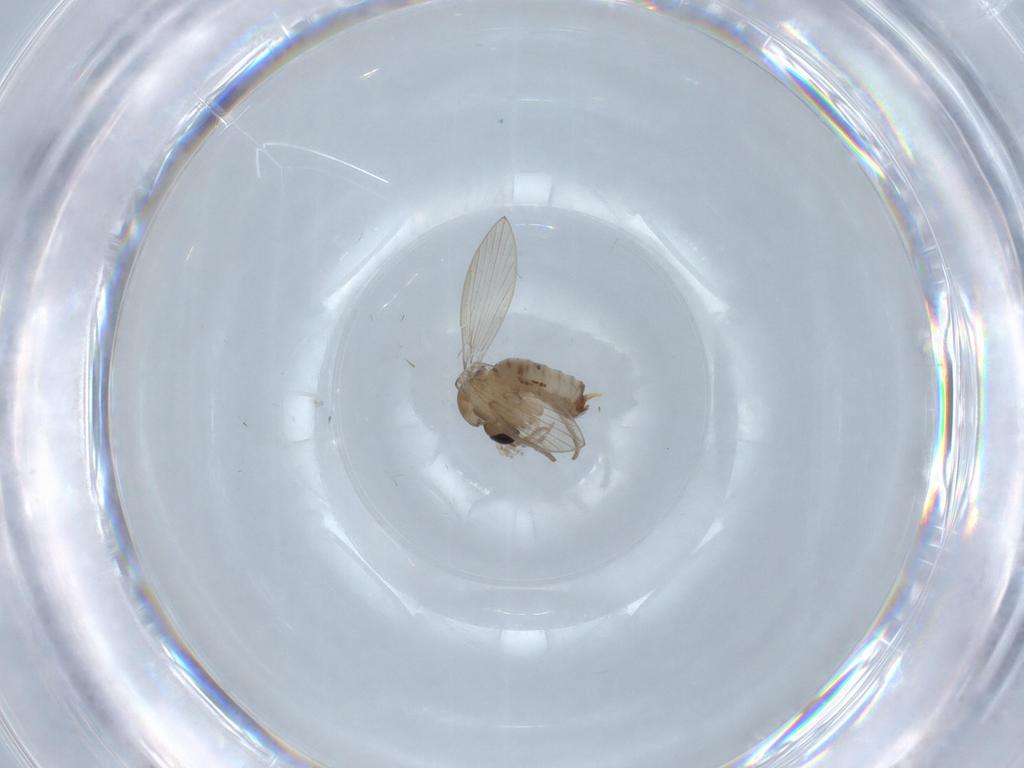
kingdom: Animalia
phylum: Arthropoda
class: Insecta
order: Diptera
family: Psychodidae
